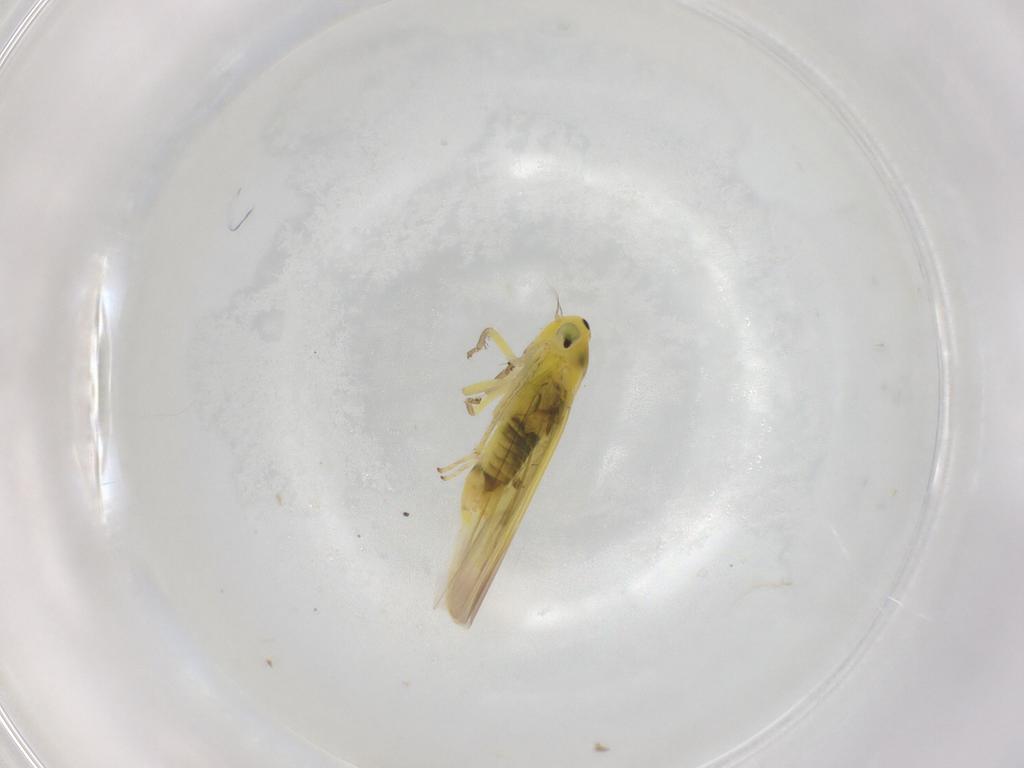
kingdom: Animalia
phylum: Arthropoda
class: Insecta
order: Hemiptera
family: Cicadellidae
